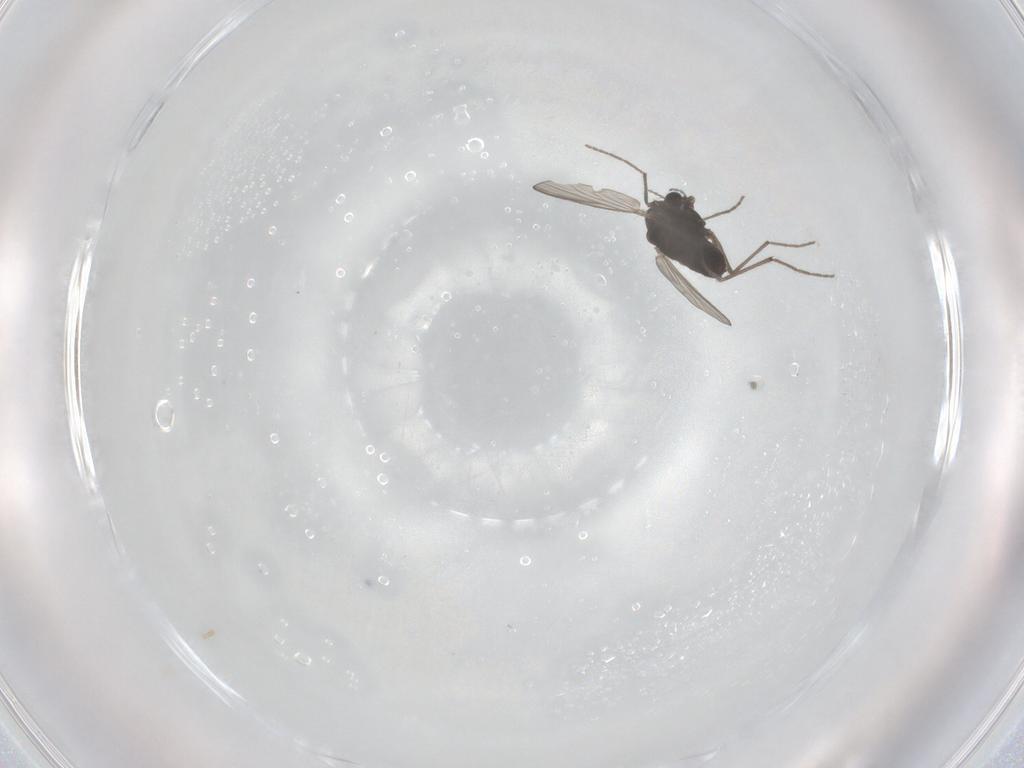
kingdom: Animalia
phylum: Arthropoda
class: Insecta
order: Diptera
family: Chironomidae
